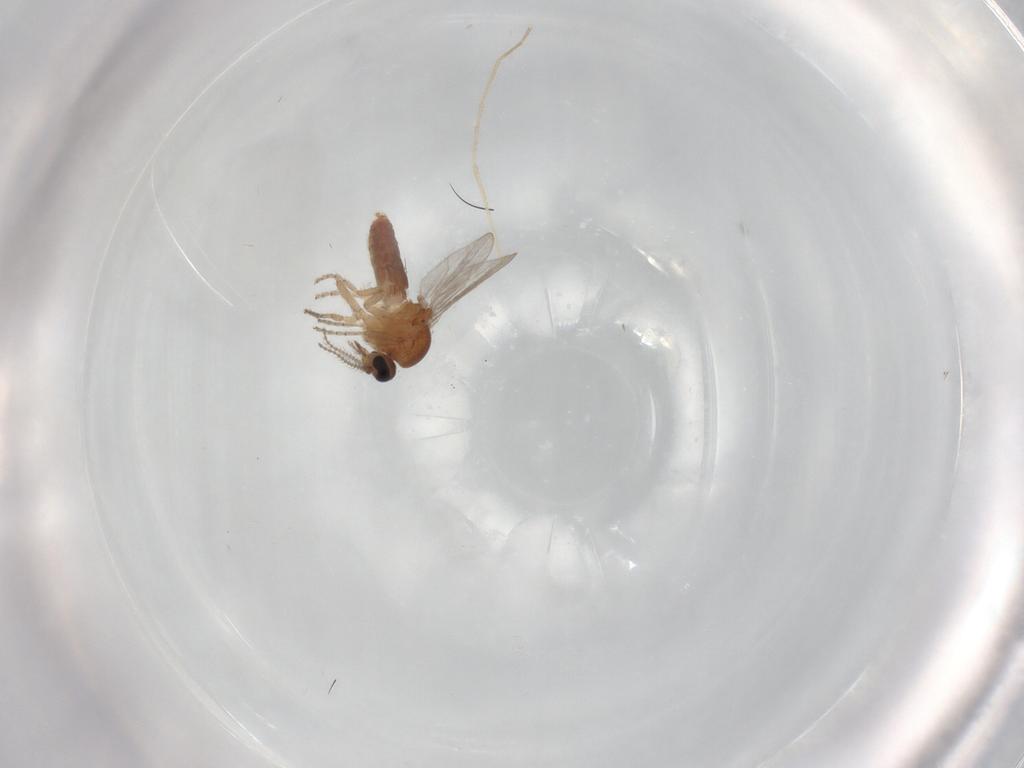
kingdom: Animalia
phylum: Arthropoda
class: Insecta
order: Diptera
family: Ceratopogonidae
